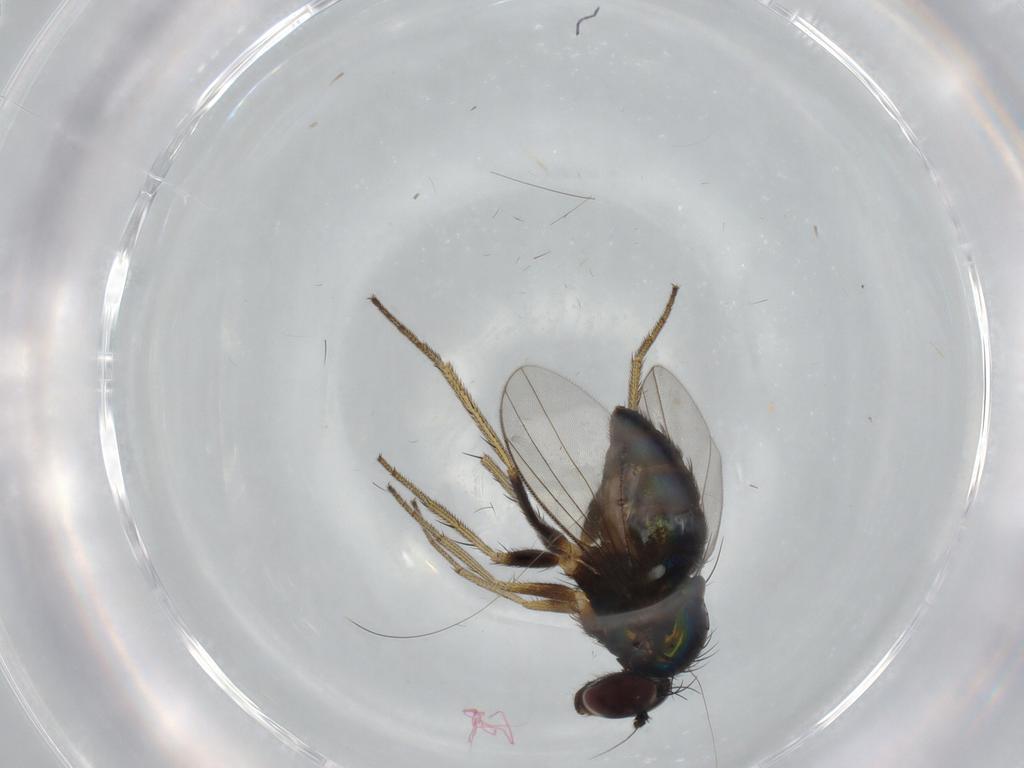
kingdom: Animalia
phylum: Arthropoda
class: Insecta
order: Diptera
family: Dolichopodidae
